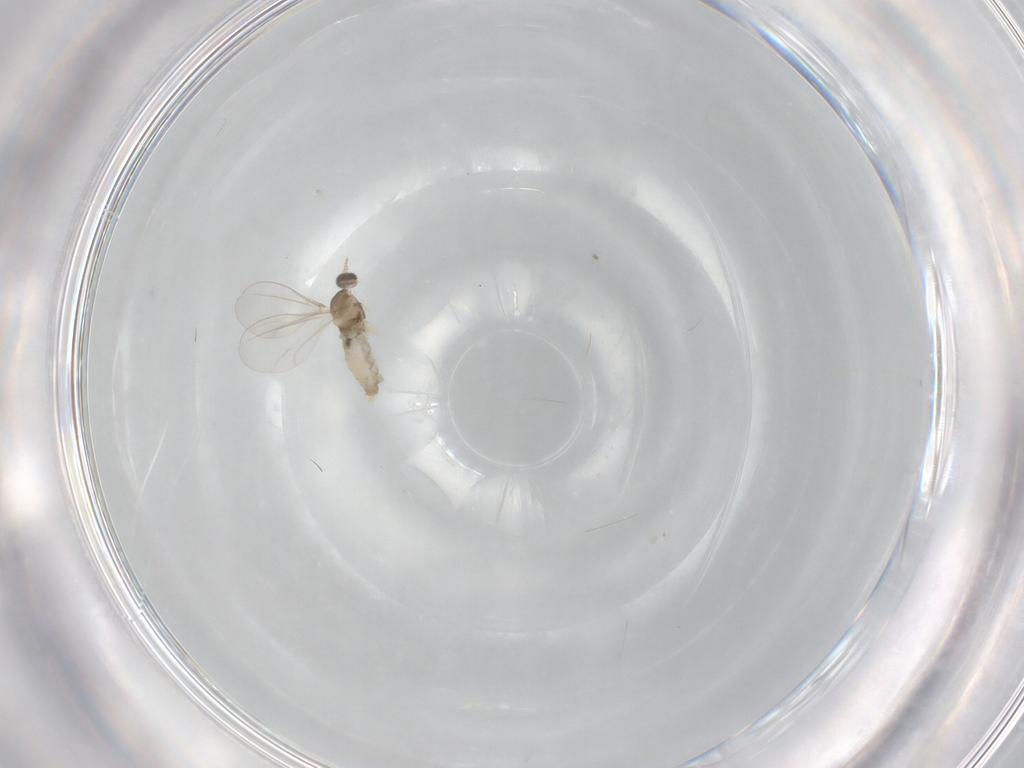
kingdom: Animalia
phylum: Arthropoda
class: Insecta
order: Diptera
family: Cecidomyiidae
